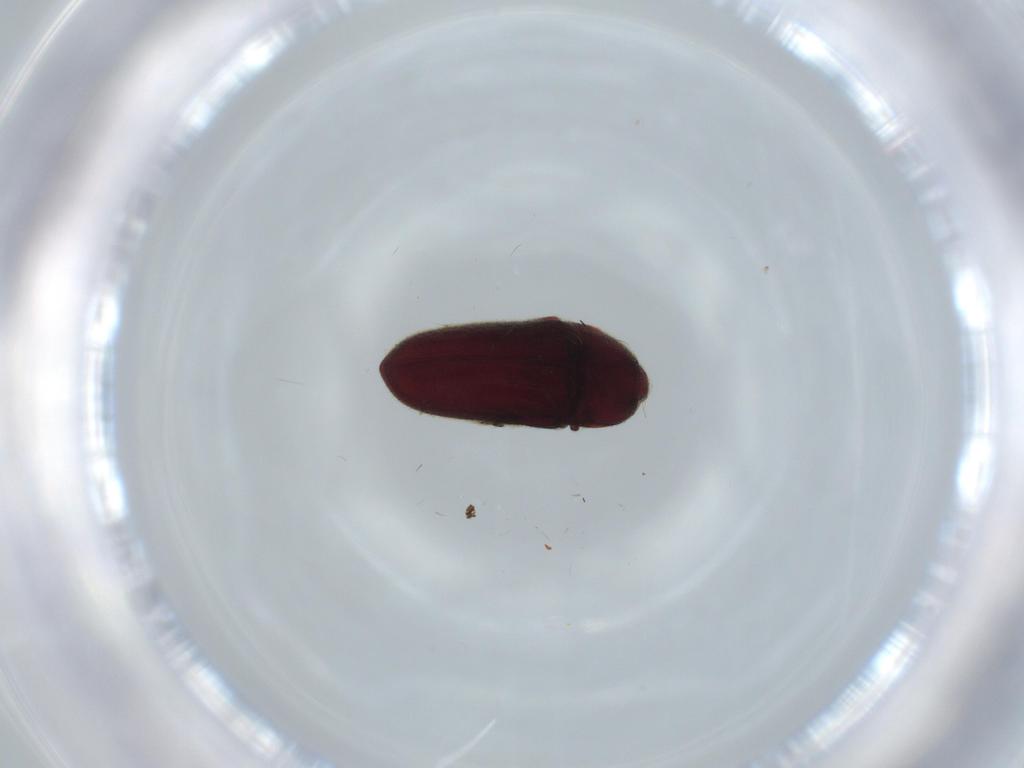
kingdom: Animalia
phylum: Arthropoda
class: Insecta
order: Coleoptera
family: Throscidae
